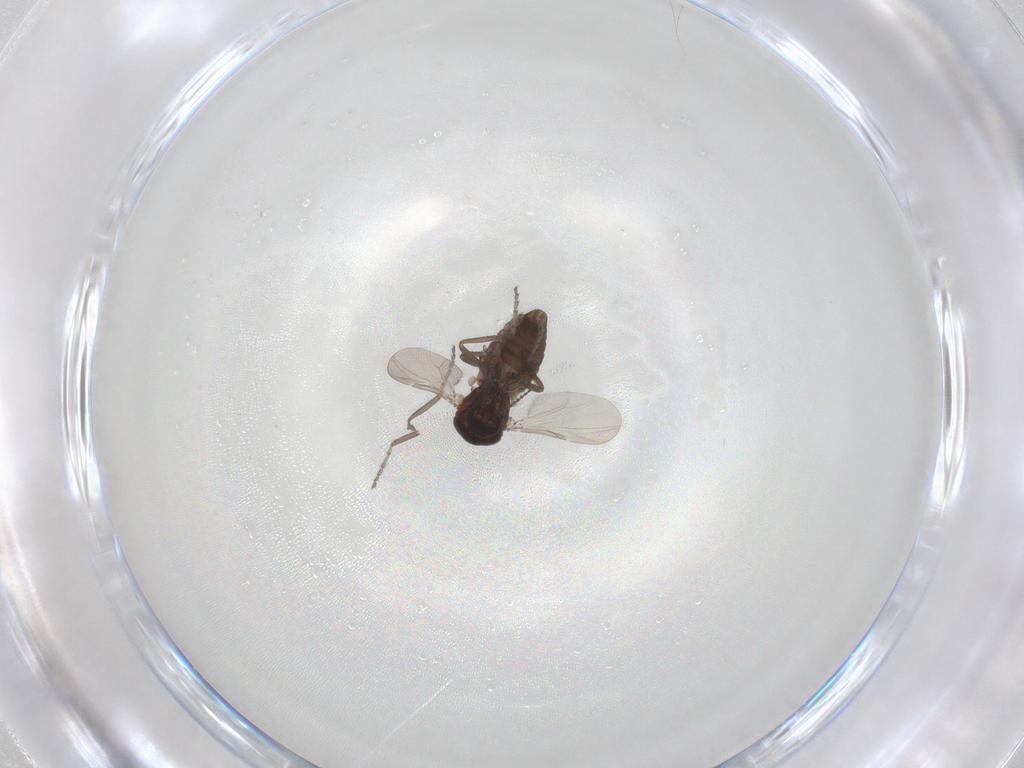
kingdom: Animalia
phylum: Arthropoda
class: Insecta
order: Diptera
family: Ceratopogonidae
